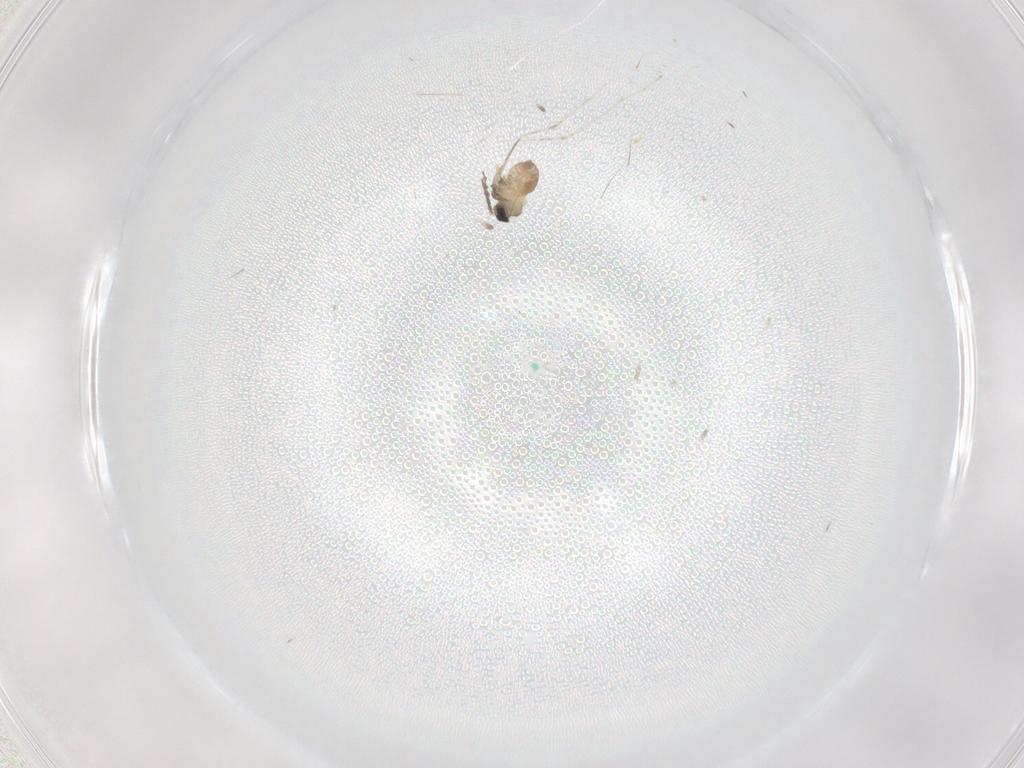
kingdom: Animalia
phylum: Arthropoda
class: Insecta
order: Diptera
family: Cecidomyiidae
